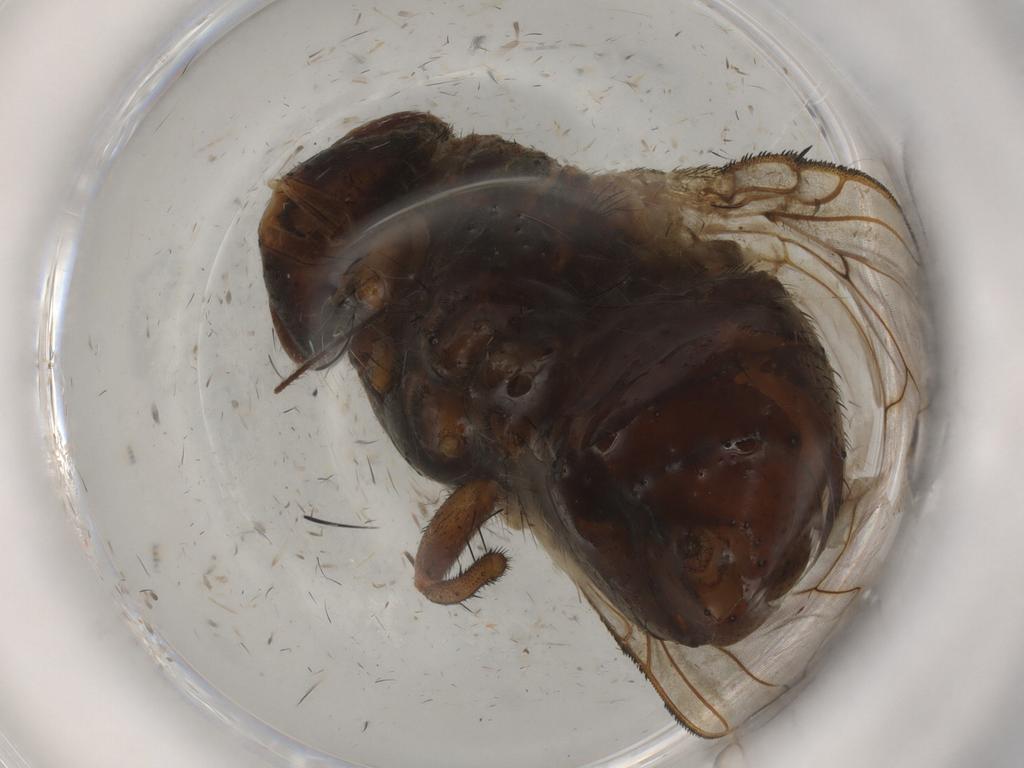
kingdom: Animalia
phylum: Arthropoda
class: Insecta
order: Diptera
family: Tachinidae
